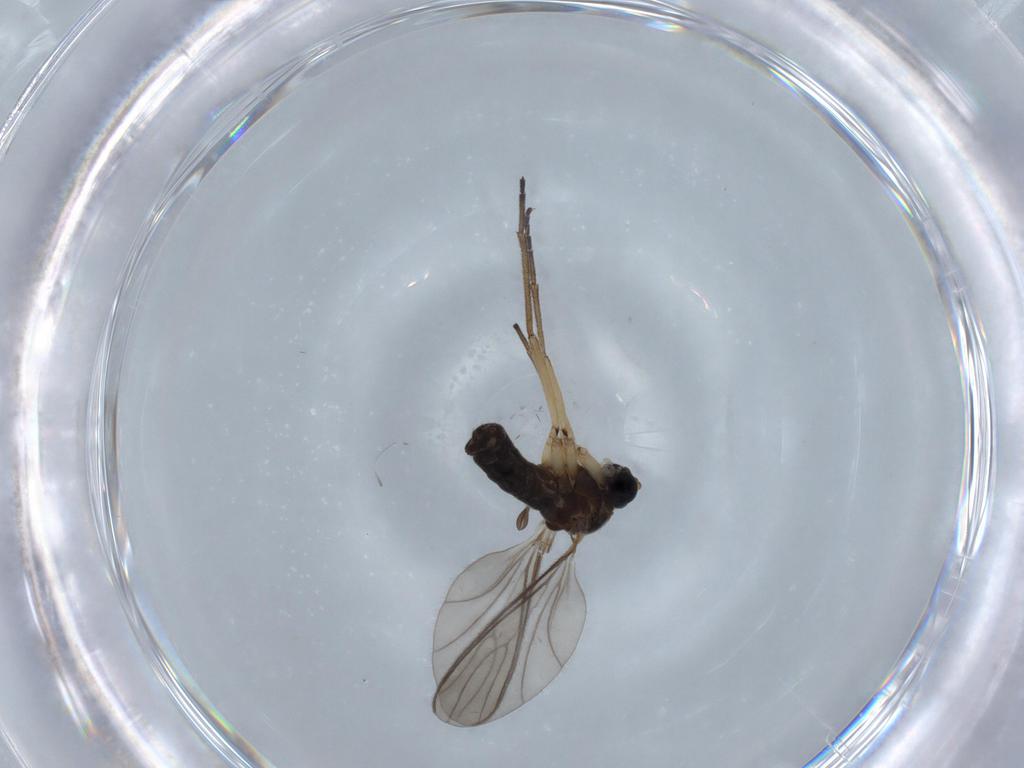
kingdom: Animalia
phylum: Arthropoda
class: Insecta
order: Diptera
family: Sciaridae
